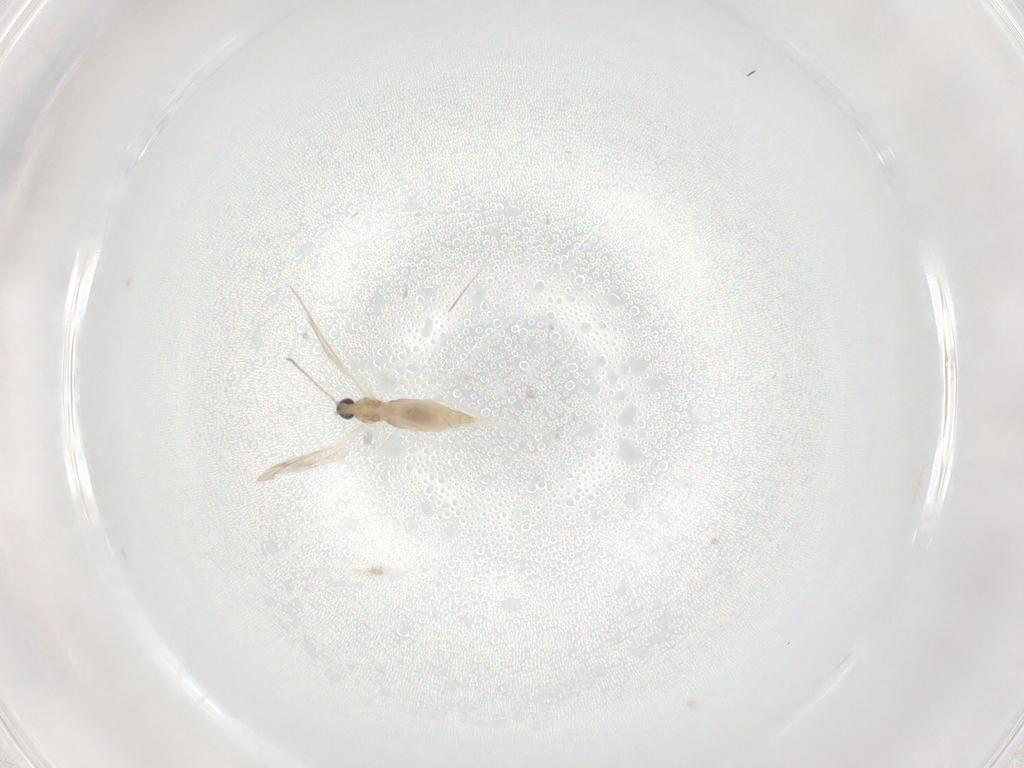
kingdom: Animalia
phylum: Arthropoda
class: Insecta
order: Diptera
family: Cecidomyiidae
